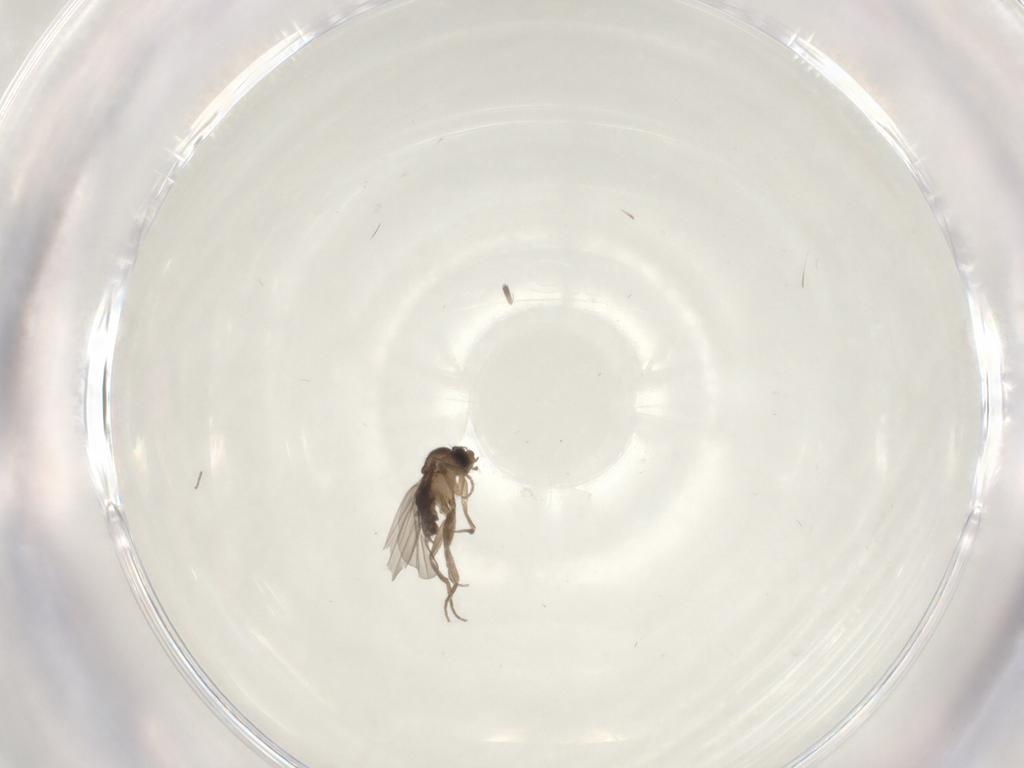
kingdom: Animalia
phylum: Arthropoda
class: Insecta
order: Diptera
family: Phoridae
